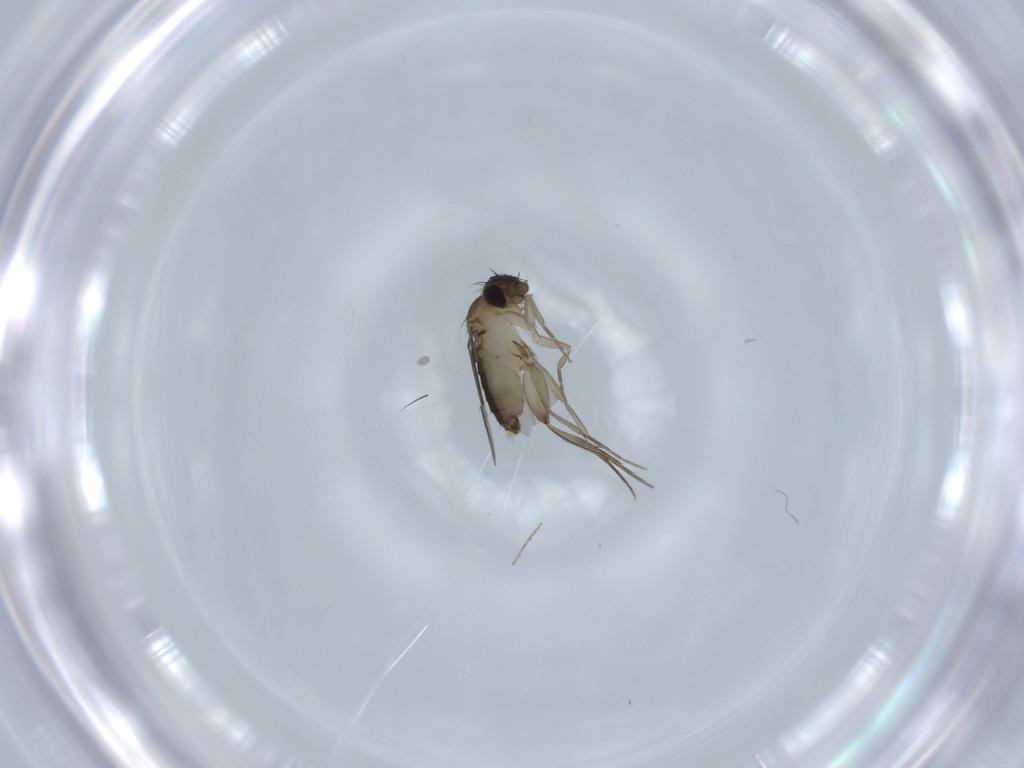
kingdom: Animalia
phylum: Arthropoda
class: Insecta
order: Diptera
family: Phoridae
